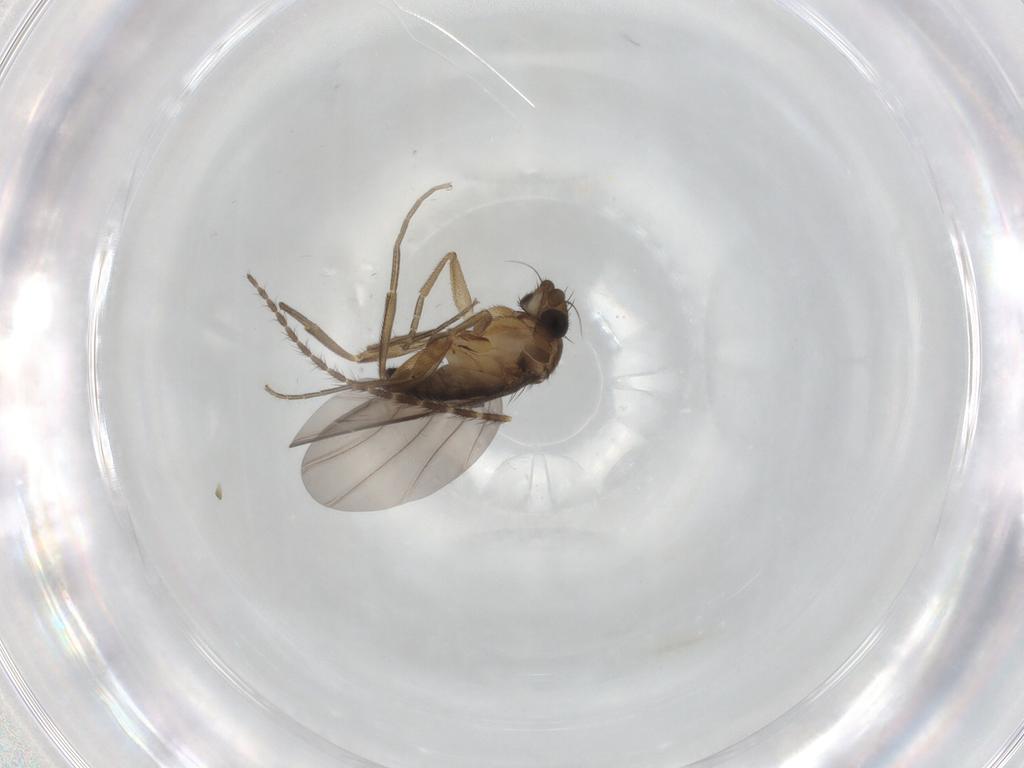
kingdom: Animalia
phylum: Arthropoda
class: Insecta
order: Diptera
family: Limoniidae
